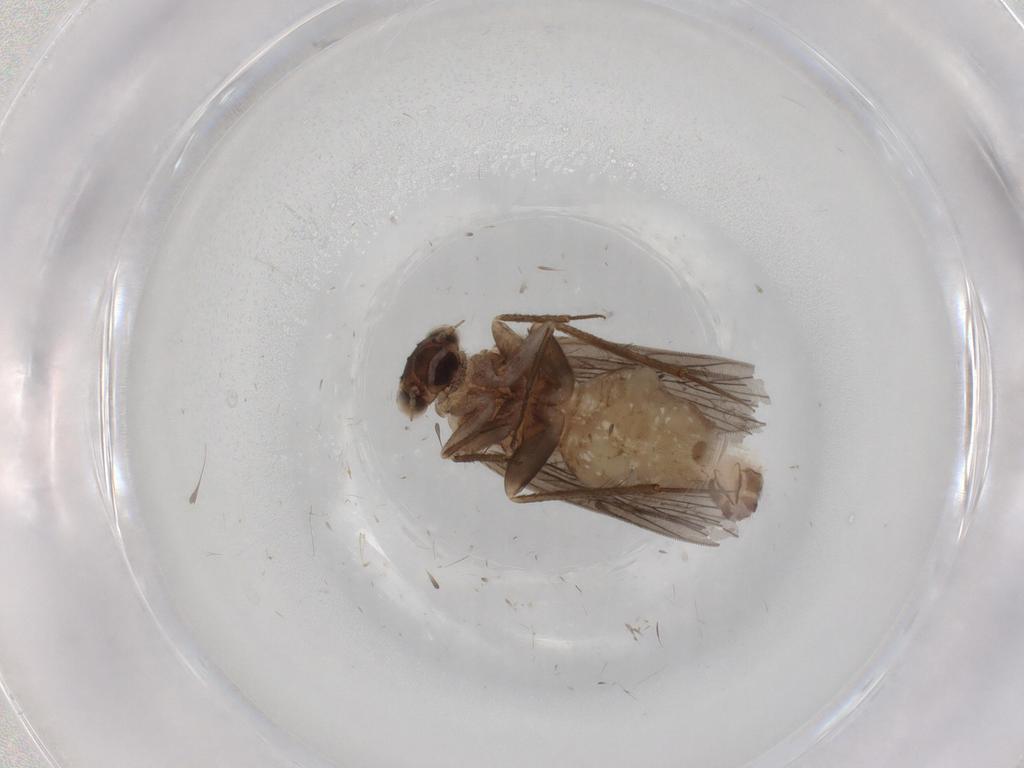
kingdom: Animalia
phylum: Arthropoda
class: Insecta
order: Psocodea
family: Lepidopsocidae
